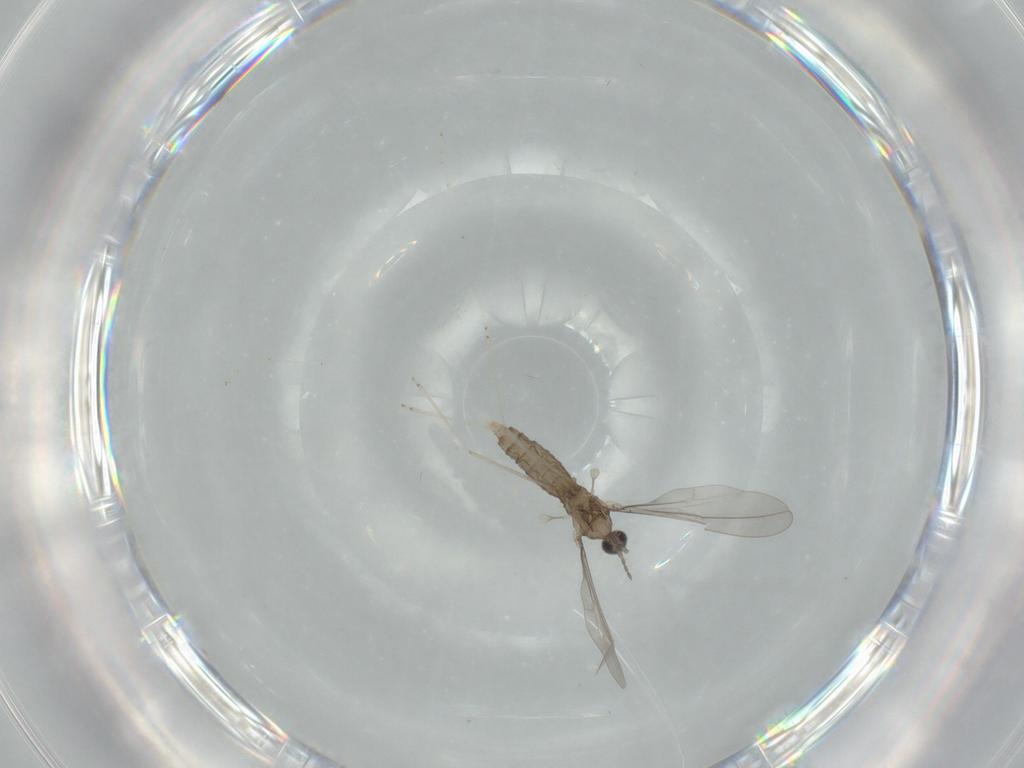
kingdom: Animalia
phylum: Arthropoda
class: Insecta
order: Diptera
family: Cecidomyiidae
